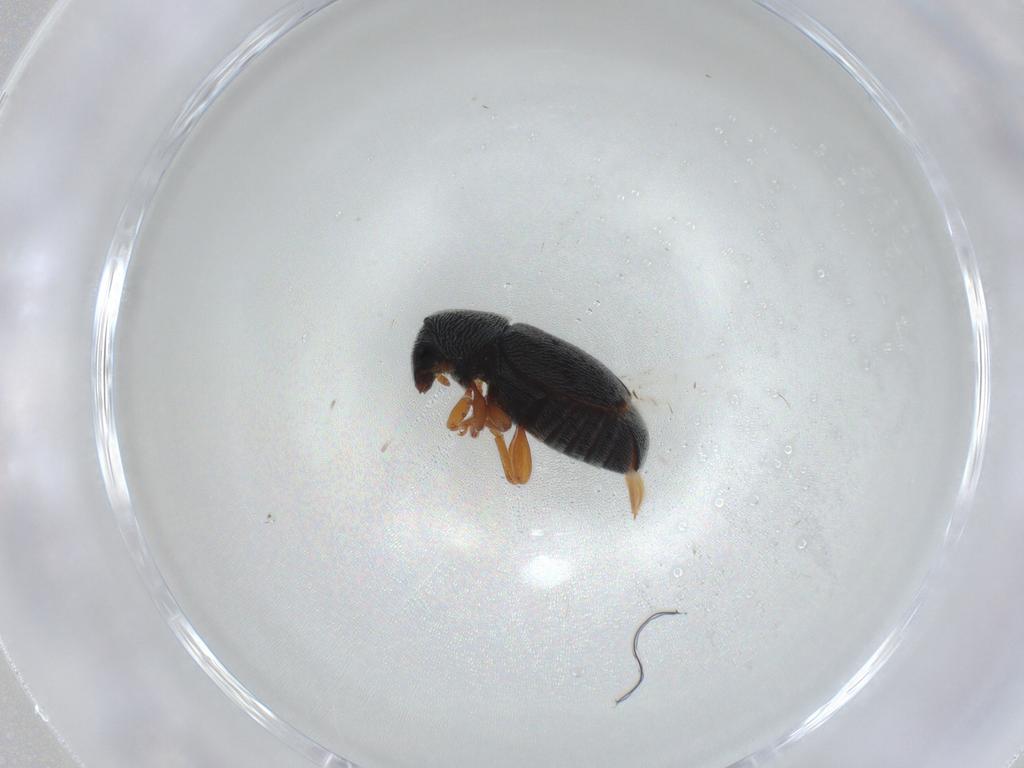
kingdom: Animalia
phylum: Arthropoda
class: Insecta
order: Coleoptera
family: Anthribidae
